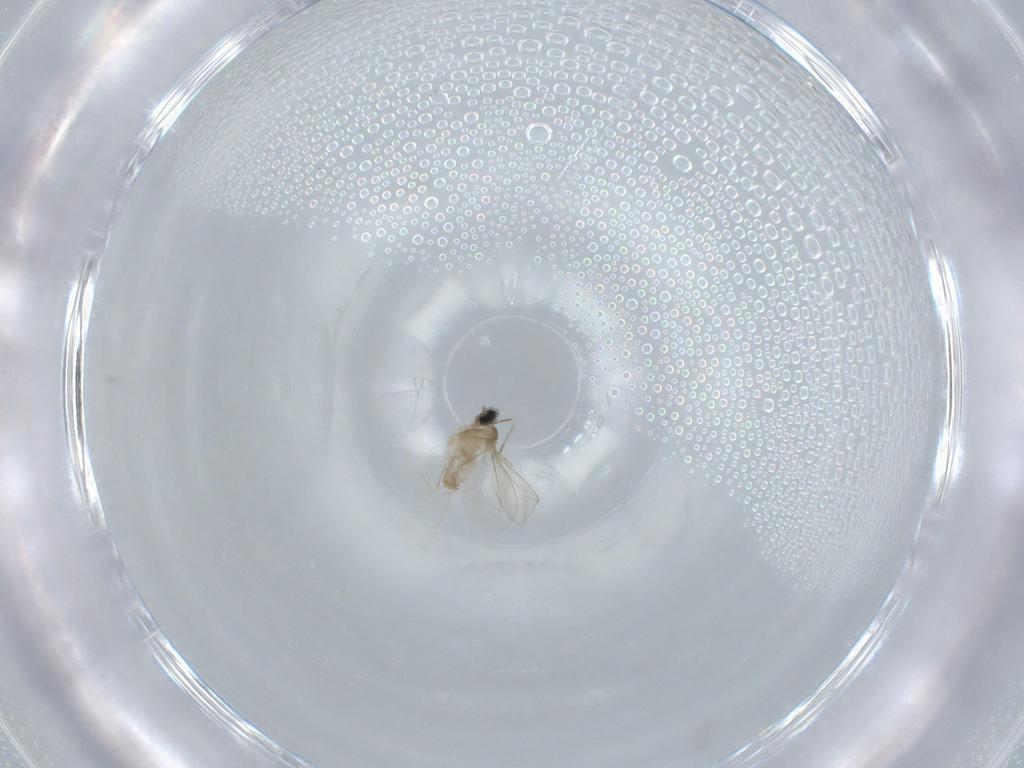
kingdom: Animalia
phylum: Arthropoda
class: Insecta
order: Diptera
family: Cecidomyiidae
